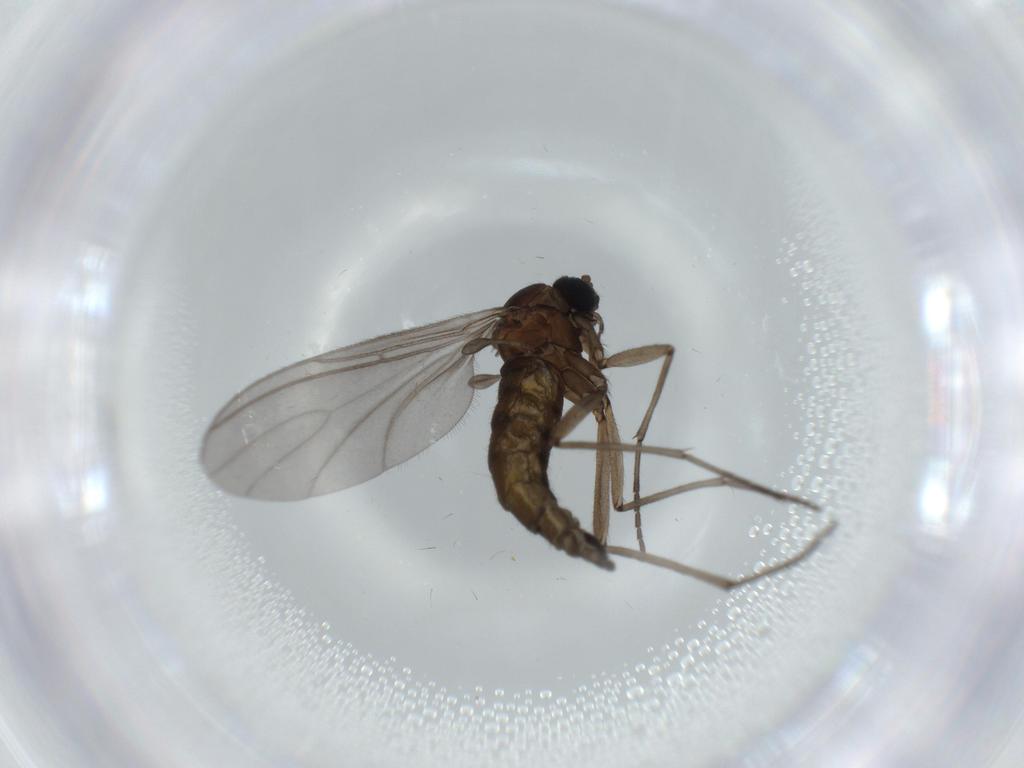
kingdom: Animalia
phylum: Arthropoda
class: Insecta
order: Diptera
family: Sciaridae
